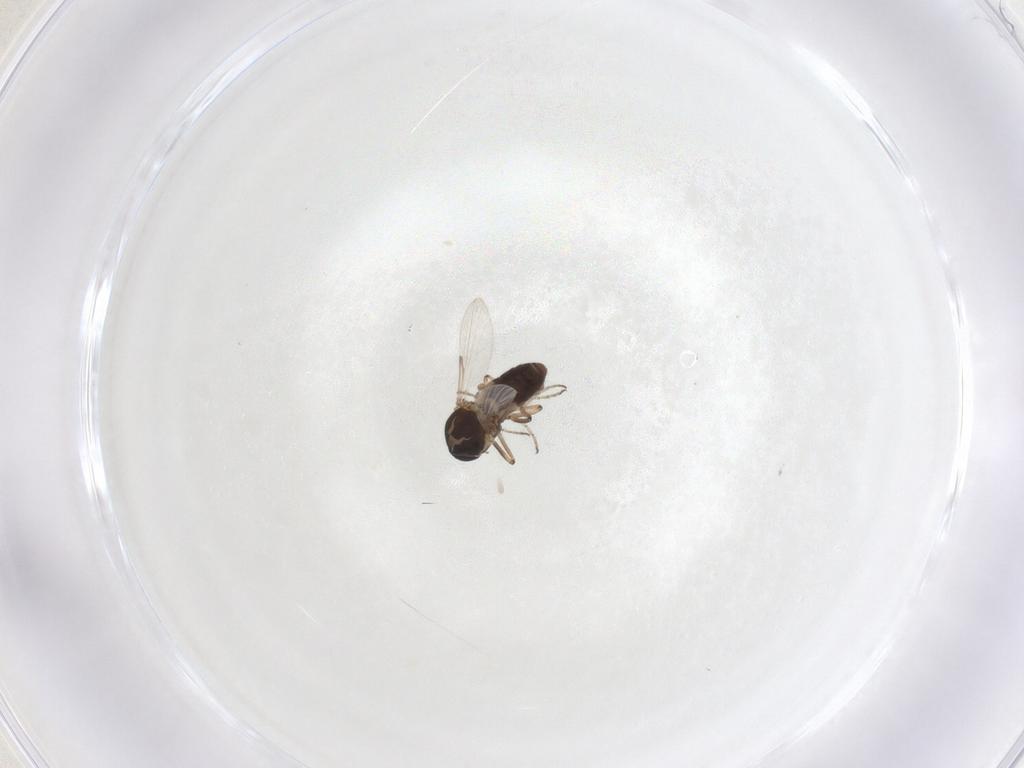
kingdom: Animalia
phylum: Arthropoda
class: Insecta
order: Diptera
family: Ceratopogonidae
